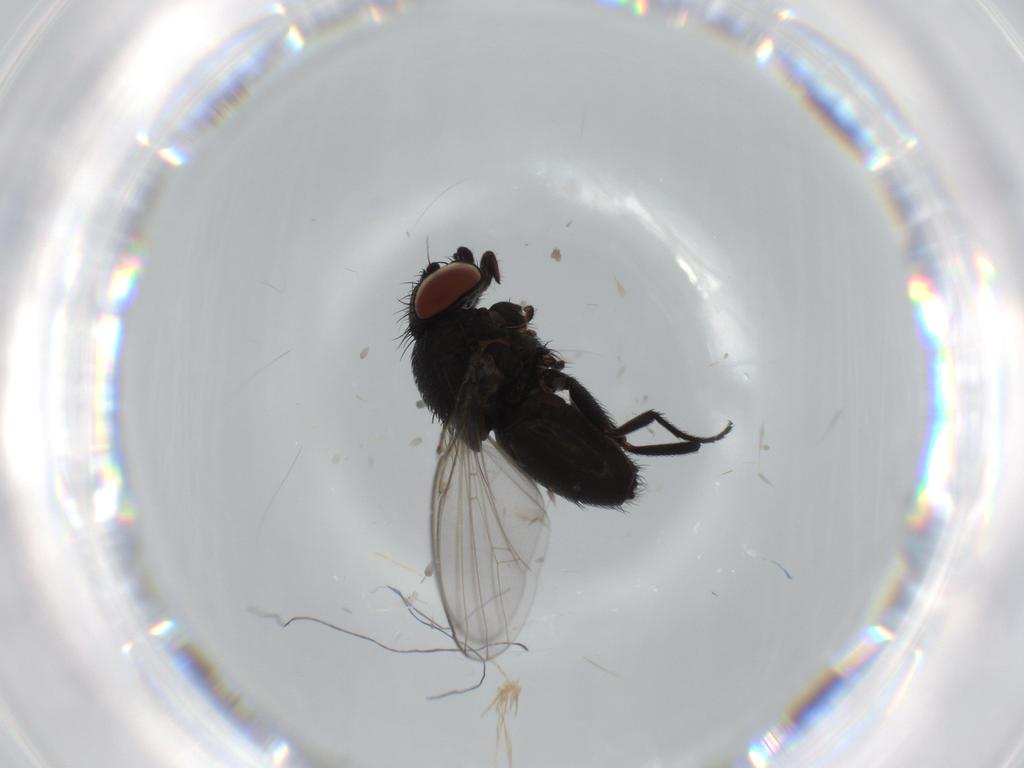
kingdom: Animalia
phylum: Arthropoda
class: Insecta
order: Diptera
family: Milichiidae
